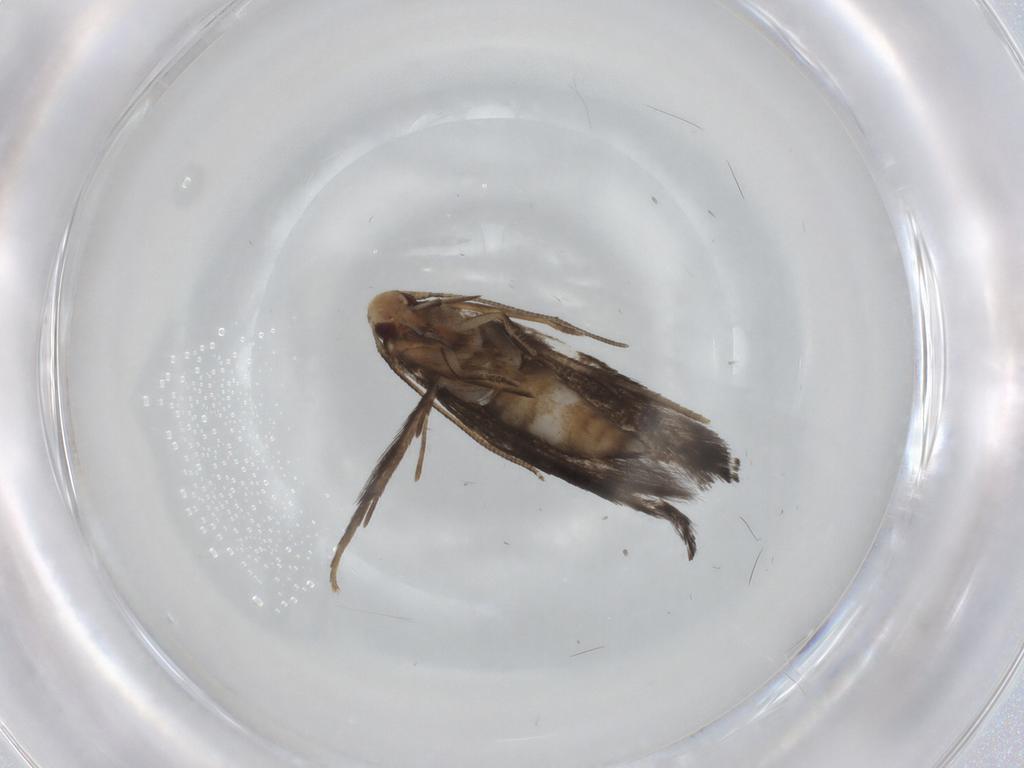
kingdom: Animalia
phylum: Arthropoda
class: Insecta
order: Lepidoptera
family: Gelechiidae
